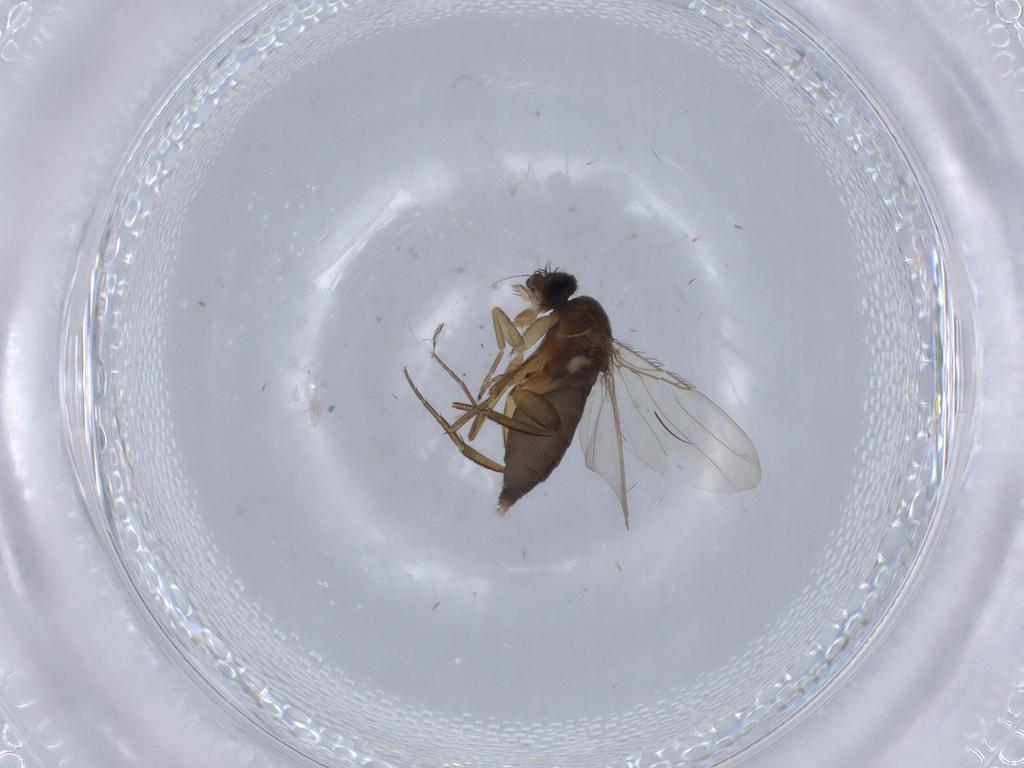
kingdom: Animalia
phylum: Arthropoda
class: Insecta
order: Diptera
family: Phoridae
